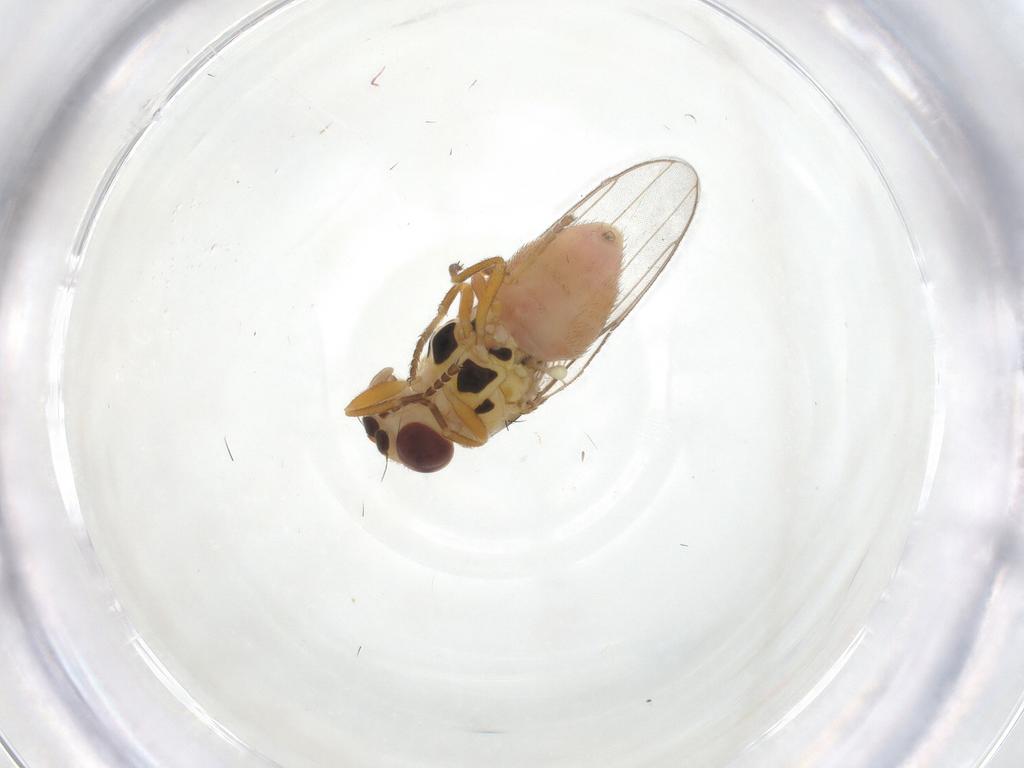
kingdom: Animalia
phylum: Arthropoda
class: Insecta
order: Diptera
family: Chloropidae
